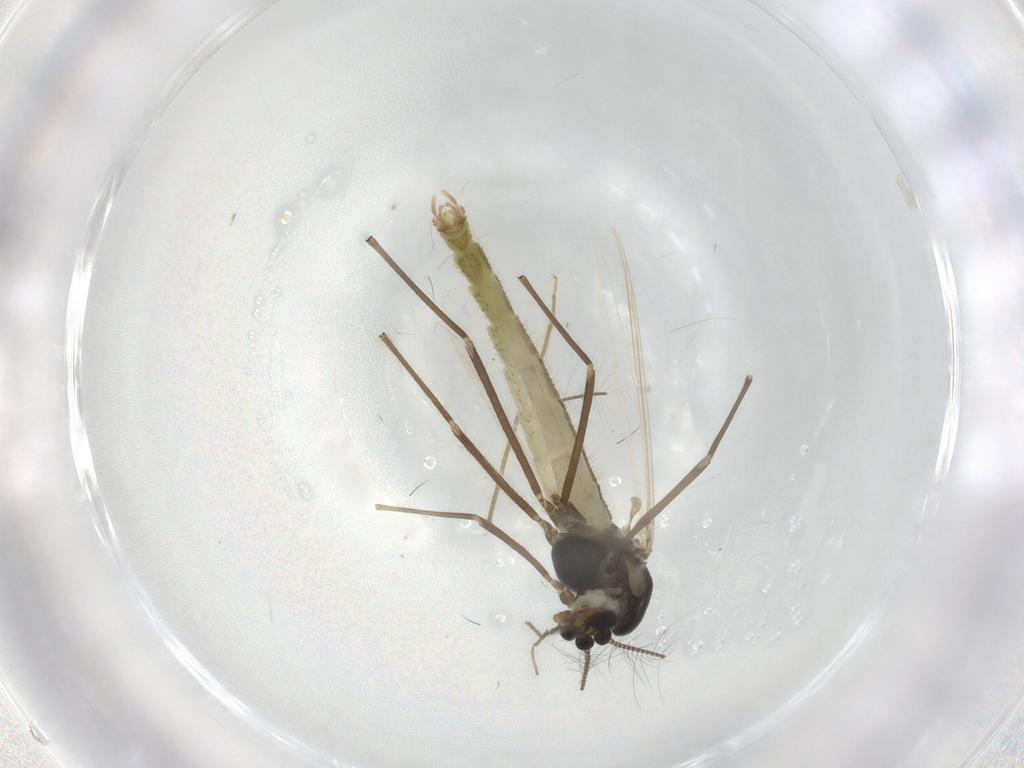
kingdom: Animalia
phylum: Arthropoda
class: Insecta
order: Diptera
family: Chironomidae
